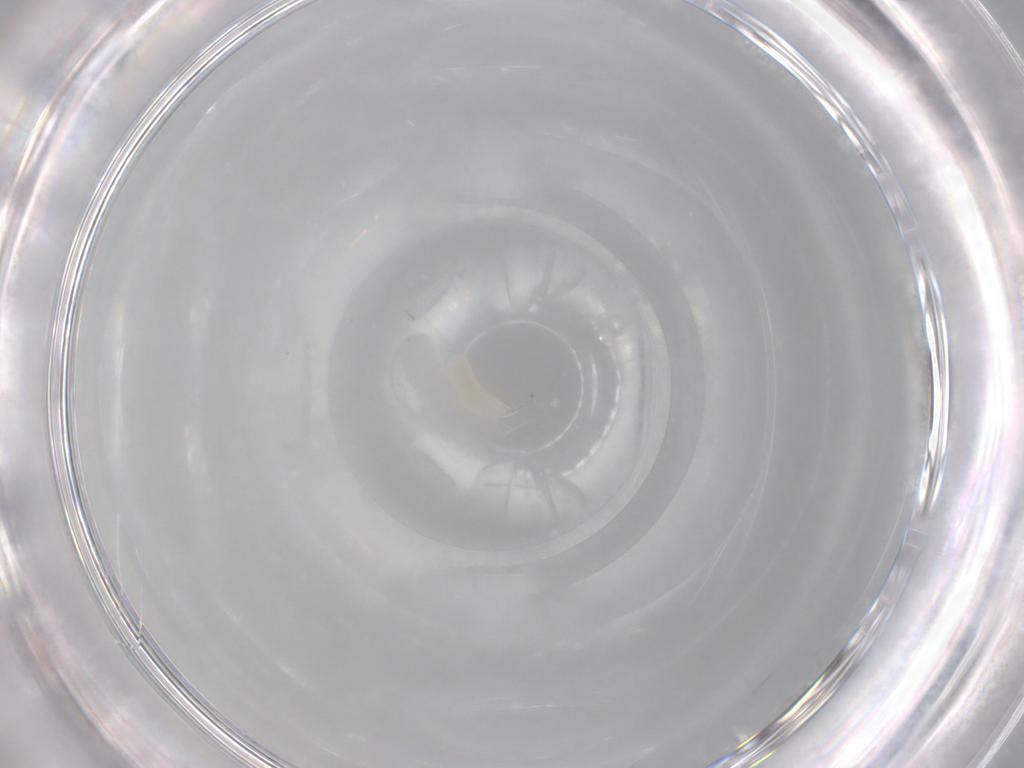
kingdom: Animalia
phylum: Arthropoda
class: Insecta
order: Diptera
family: Chironomidae
